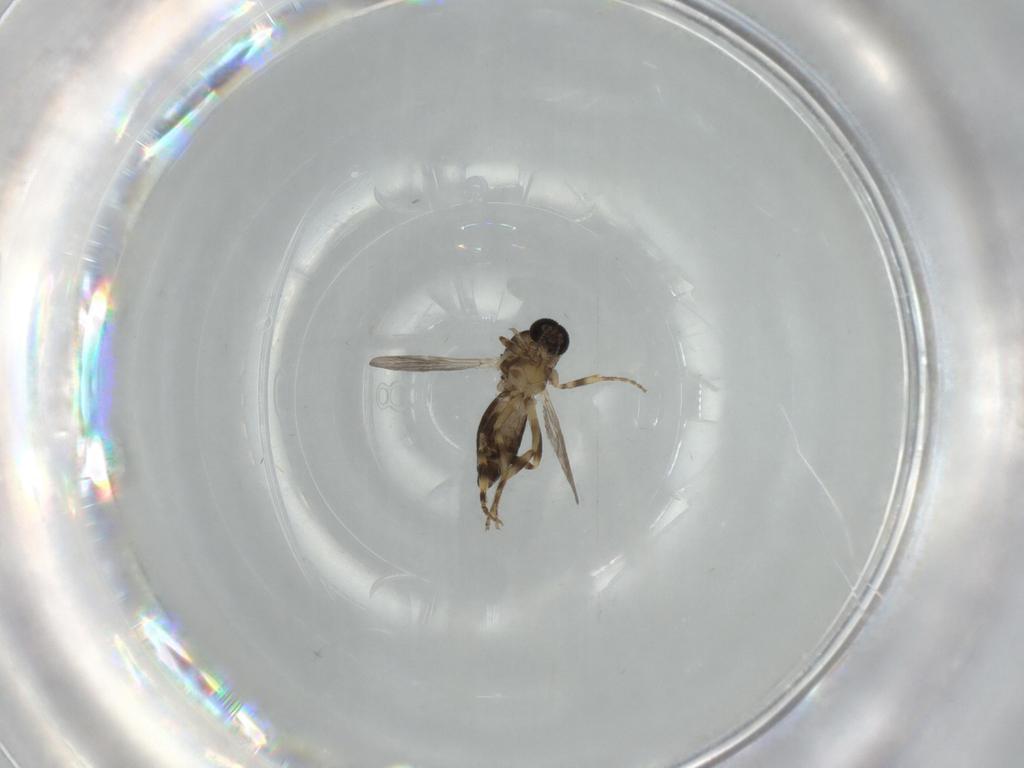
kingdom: Animalia
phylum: Arthropoda
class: Insecta
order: Diptera
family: Ceratopogonidae
